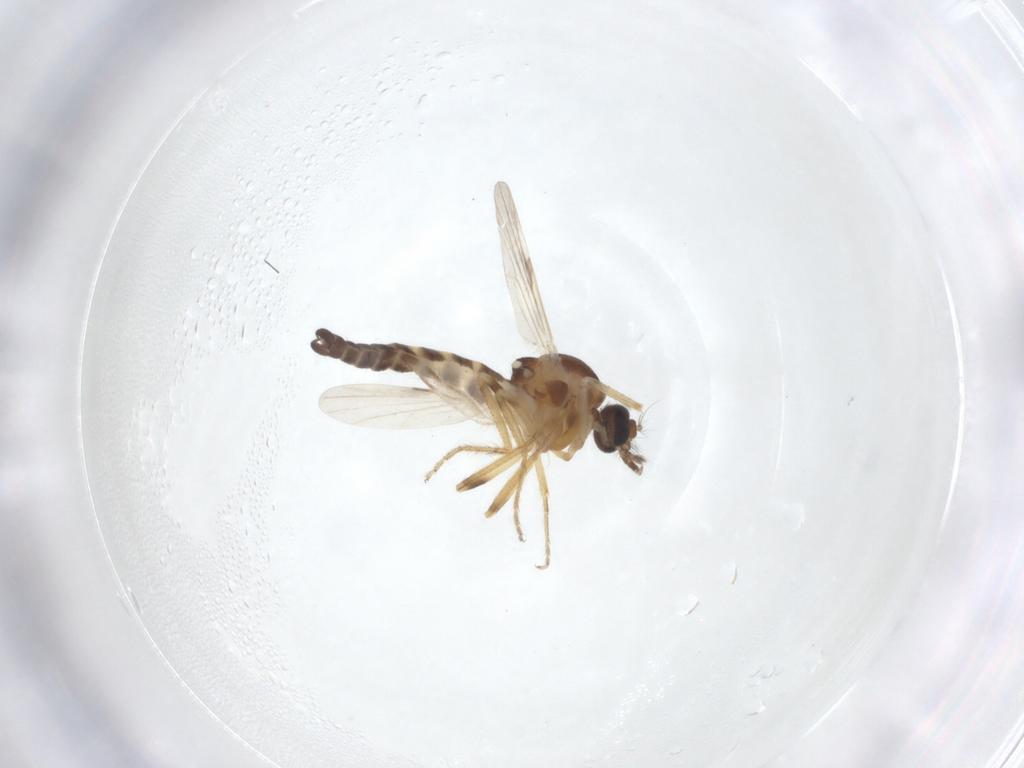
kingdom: Animalia
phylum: Arthropoda
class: Insecta
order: Diptera
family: Ceratopogonidae
